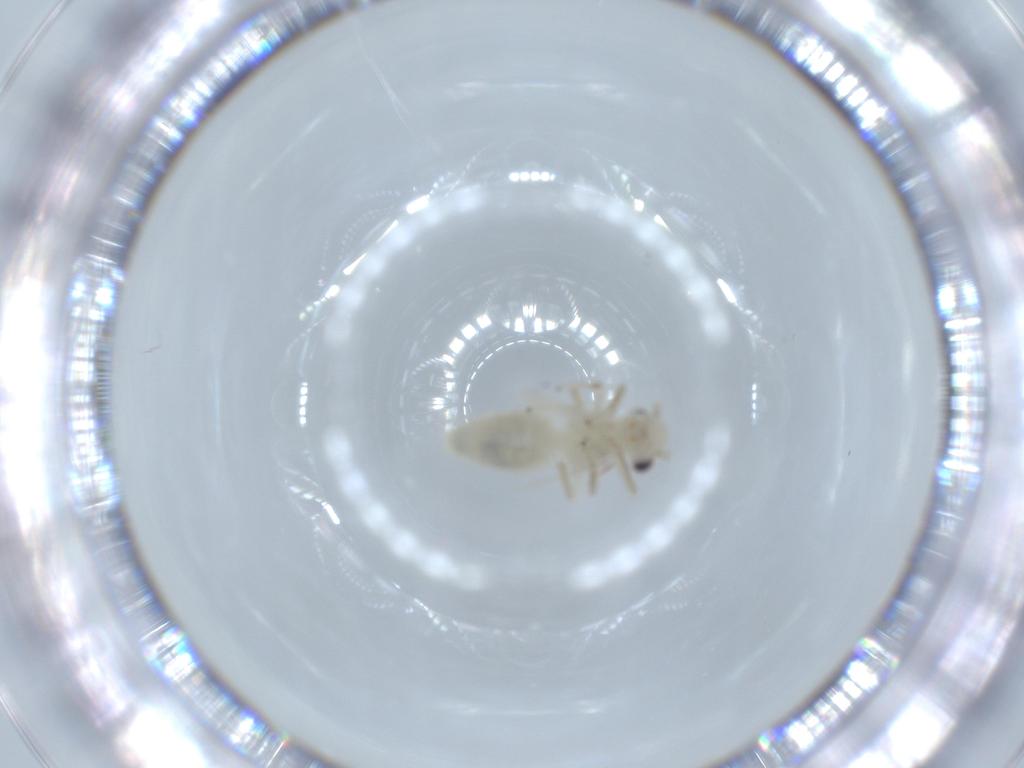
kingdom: Animalia
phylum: Arthropoda
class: Insecta
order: Psocodea
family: Caeciliusidae
